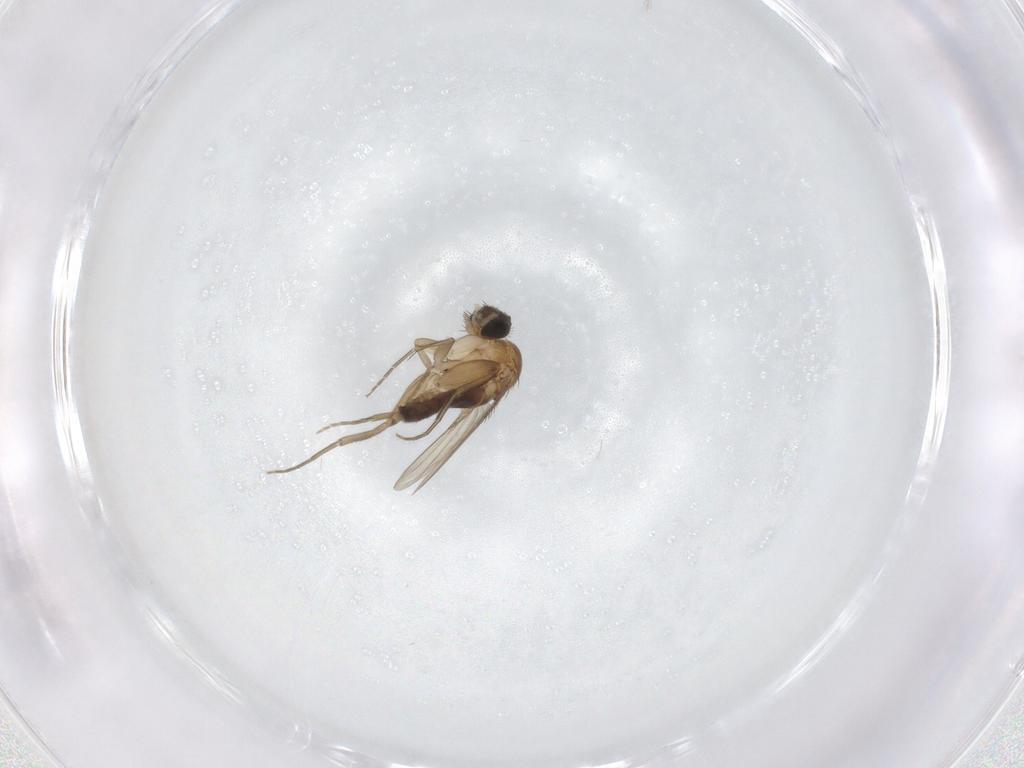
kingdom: Animalia
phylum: Arthropoda
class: Insecta
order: Diptera
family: Phoridae
